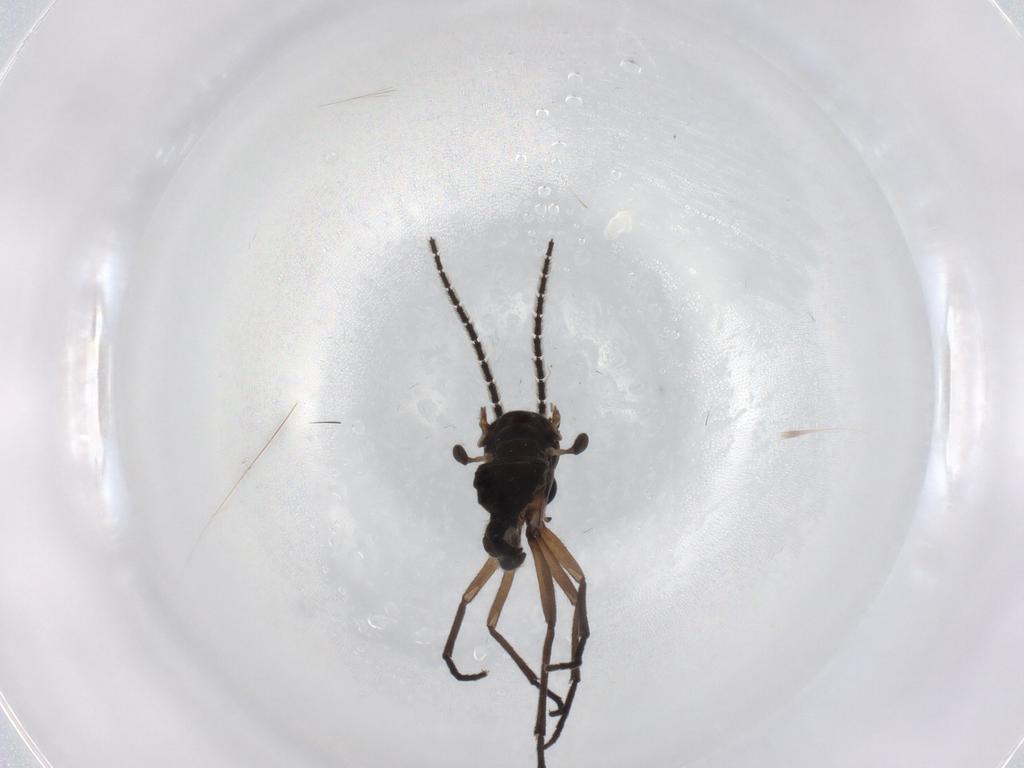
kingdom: Animalia
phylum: Arthropoda
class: Insecta
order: Diptera
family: Sciaridae
